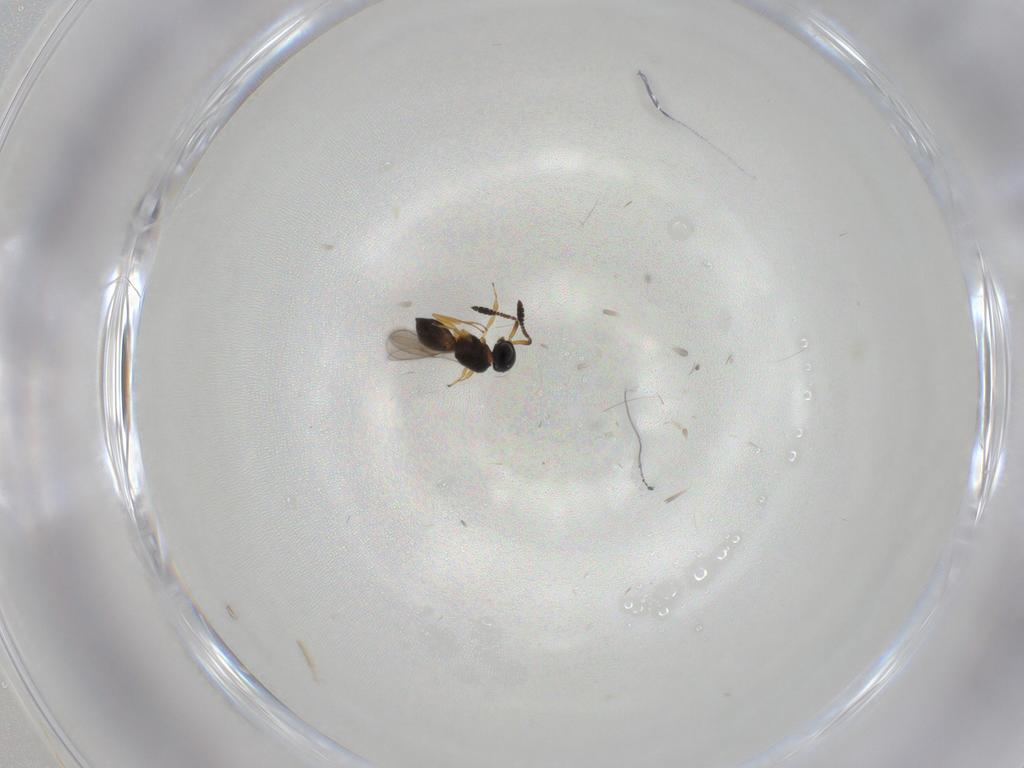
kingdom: Animalia
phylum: Arthropoda
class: Insecta
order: Hymenoptera
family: Scelionidae
